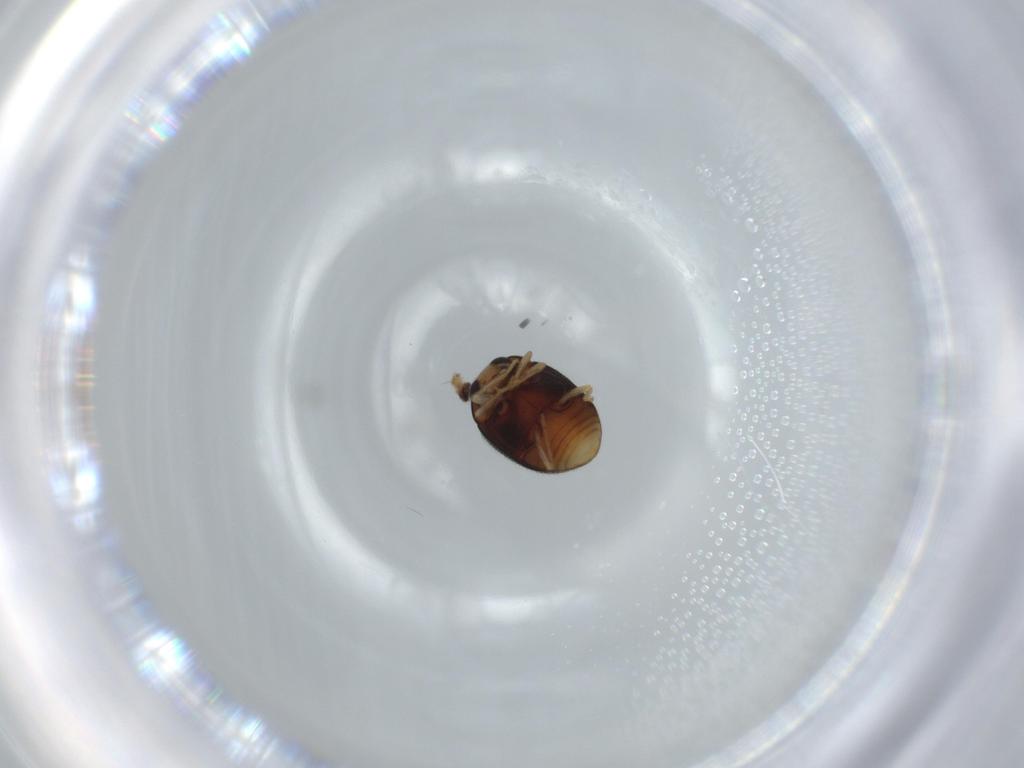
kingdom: Animalia
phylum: Arthropoda
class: Insecta
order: Coleoptera
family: Coccinellidae
